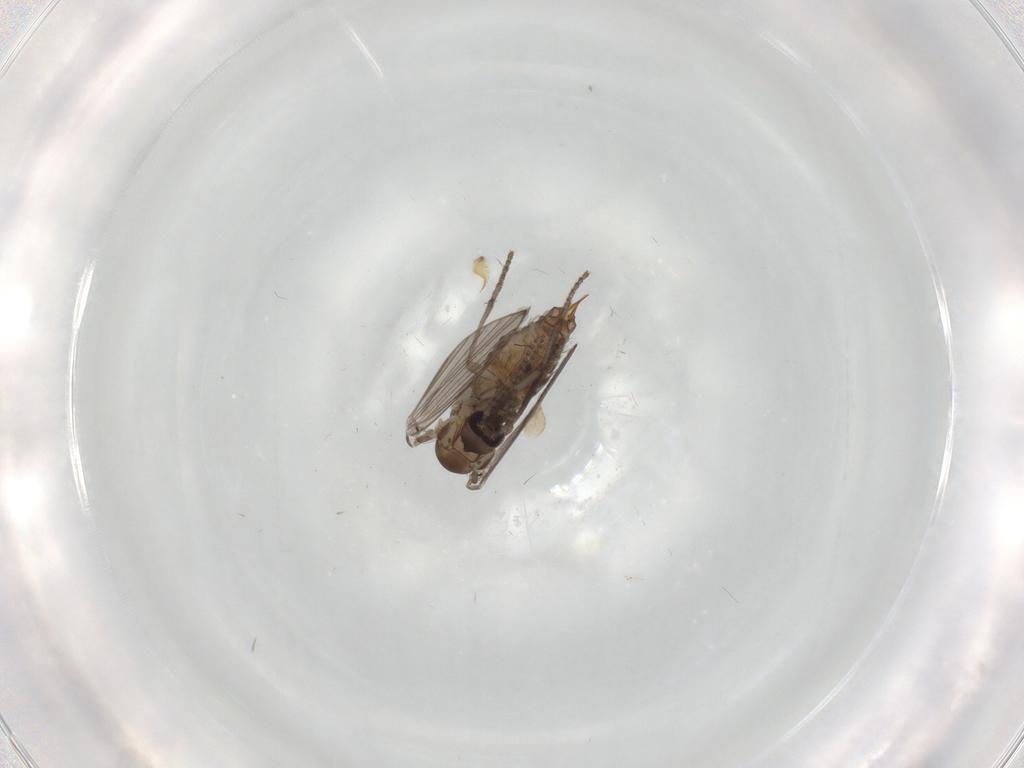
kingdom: Animalia
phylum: Arthropoda
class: Insecta
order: Diptera
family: Psychodidae
